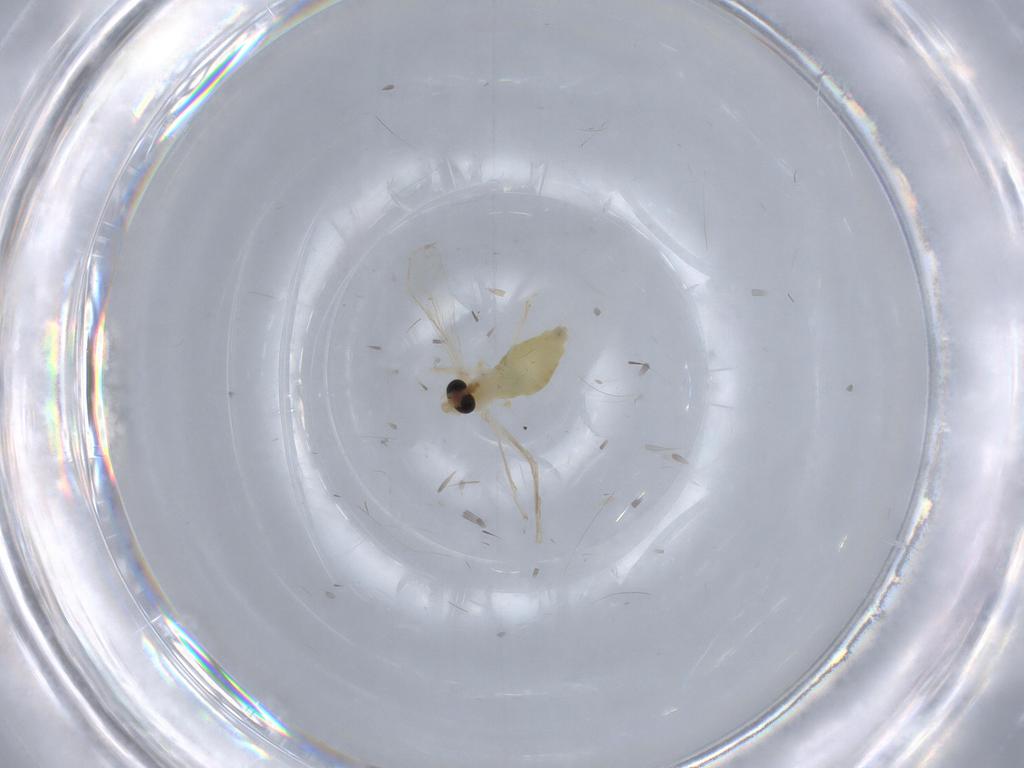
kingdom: Animalia
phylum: Arthropoda
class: Insecta
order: Diptera
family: Chironomidae
